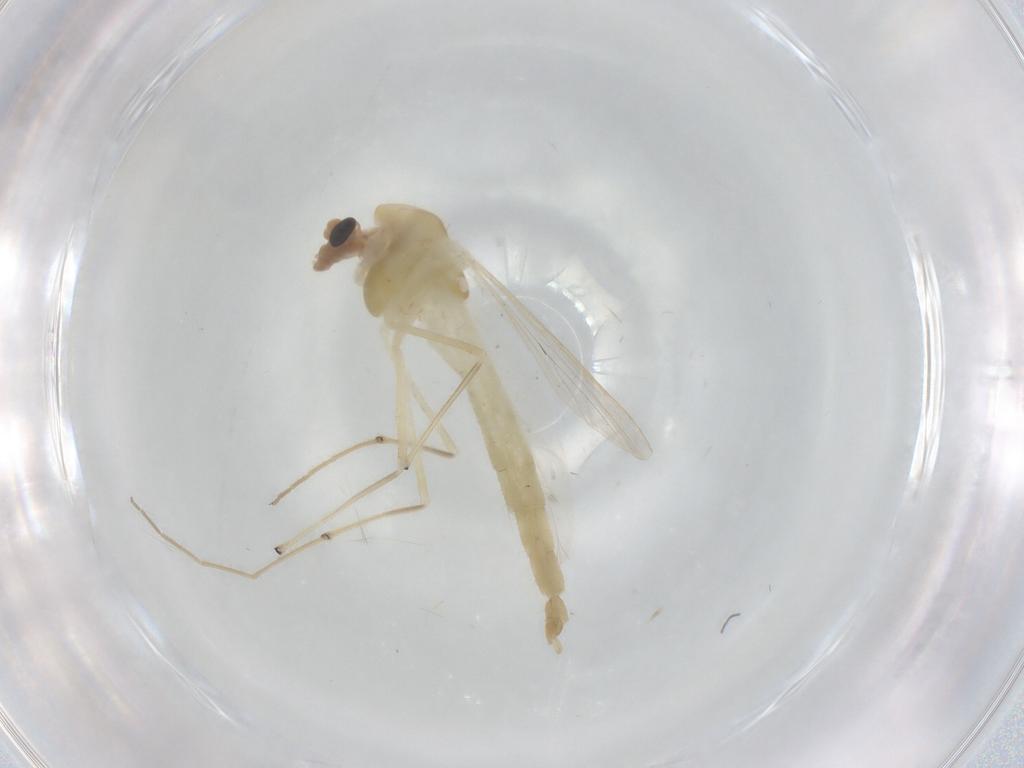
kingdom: Animalia
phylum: Arthropoda
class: Insecta
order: Diptera
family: Chironomidae
